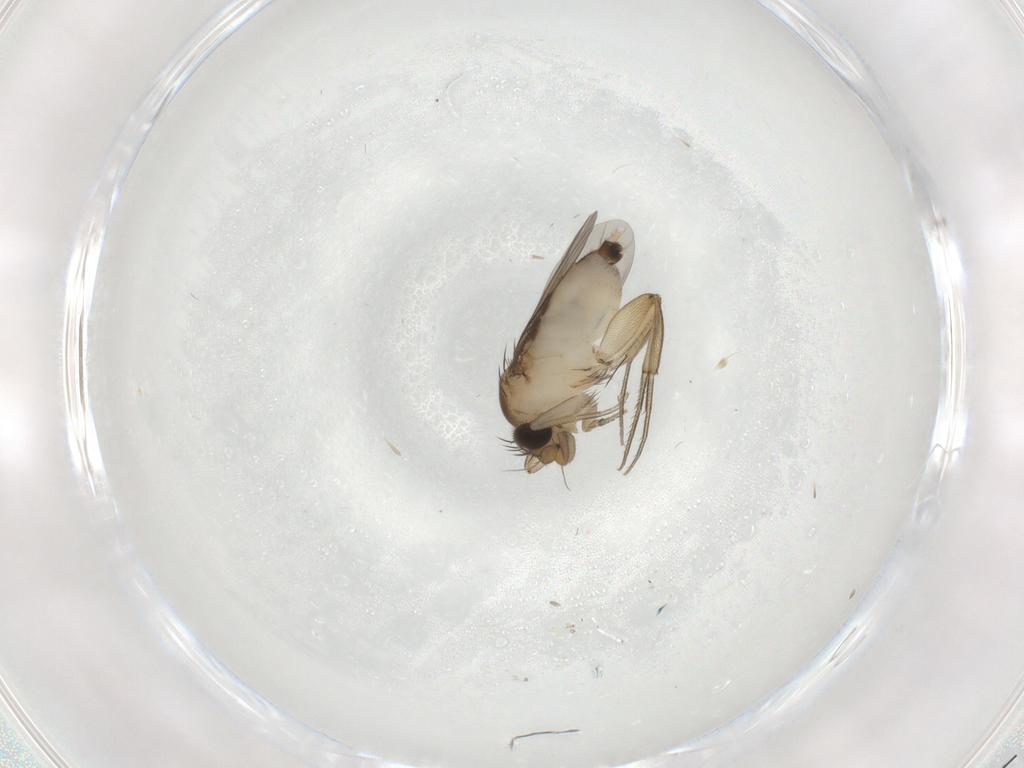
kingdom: Animalia
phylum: Arthropoda
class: Insecta
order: Diptera
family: Phoridae
